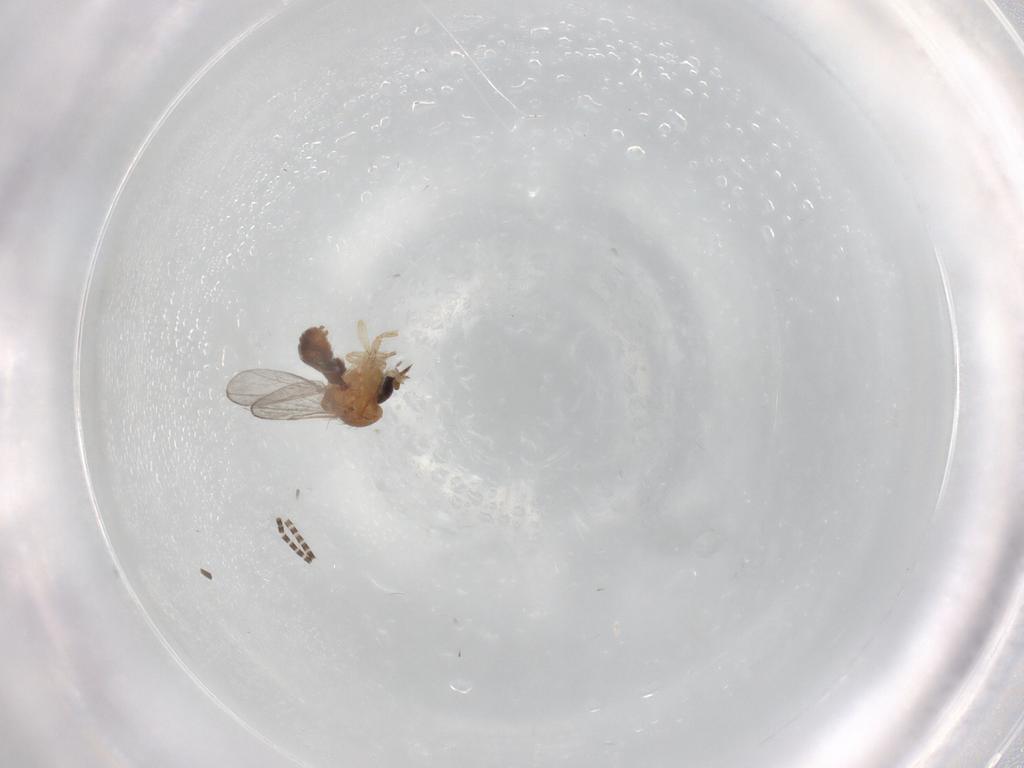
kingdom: Animalia
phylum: Arthropoda
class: Insecta
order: Diptera
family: Ceratopogonidae
